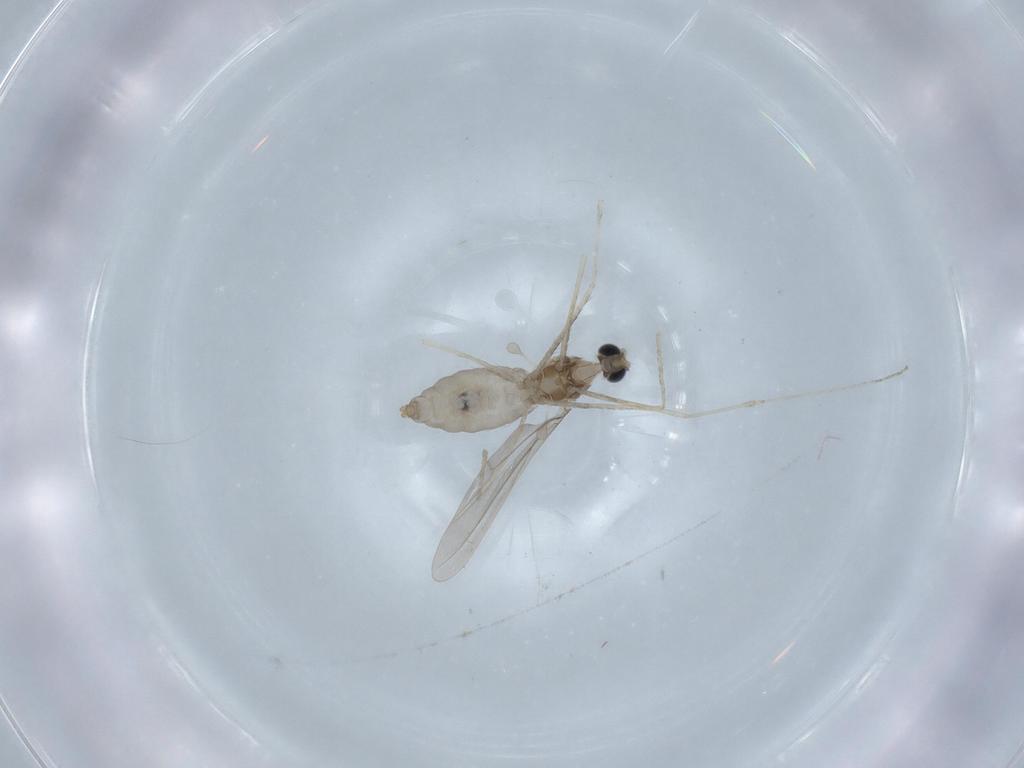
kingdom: Animalia
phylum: Arthropoda
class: Insecta
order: Diptera
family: Cecidomyiidae
